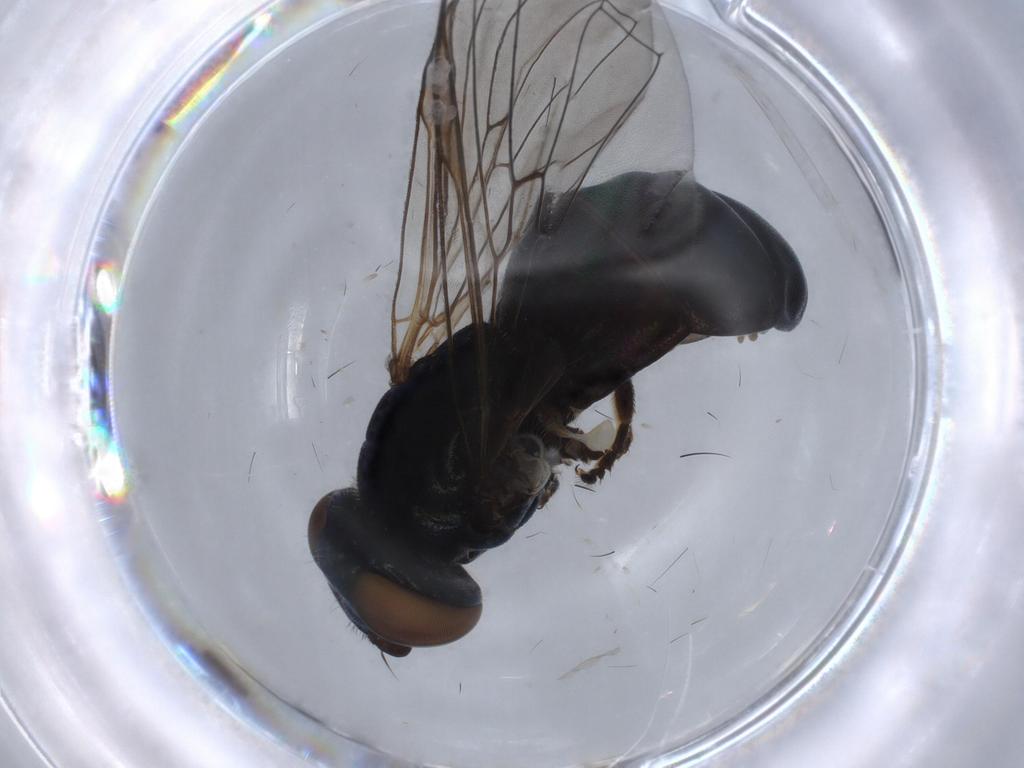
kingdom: Animalia
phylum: Arthropoda
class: Insecta
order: Diptera
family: Chironomidae
